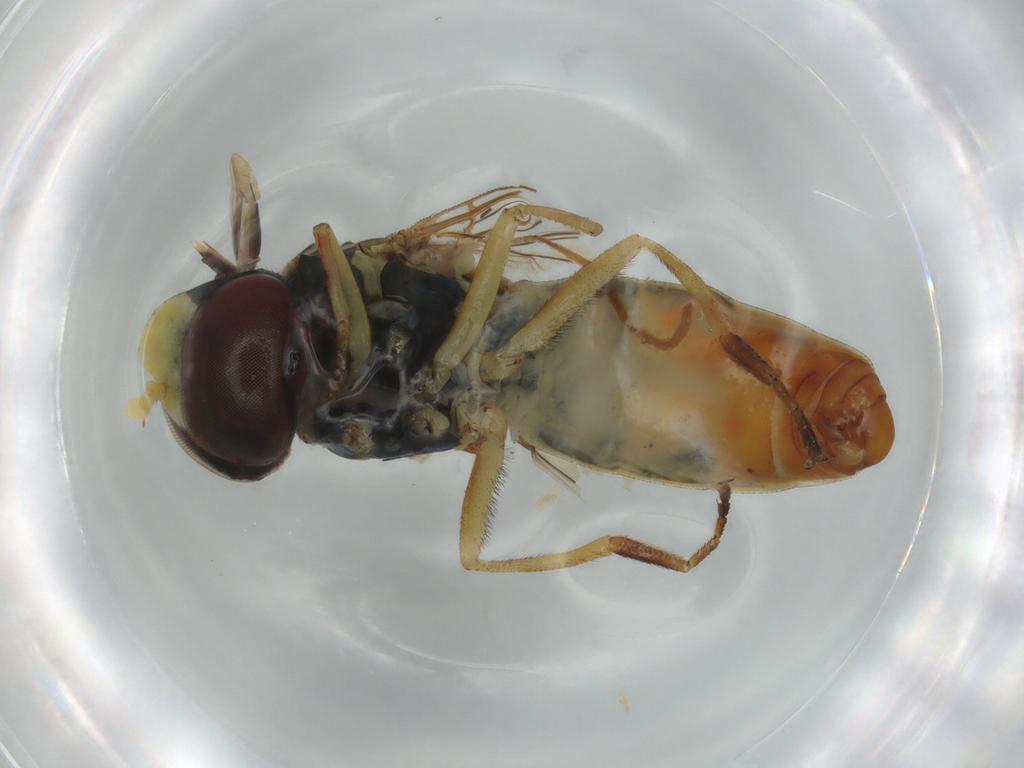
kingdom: Animalia
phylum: Arthropoda
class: Insecta
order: Diptera
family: Syrphidae
